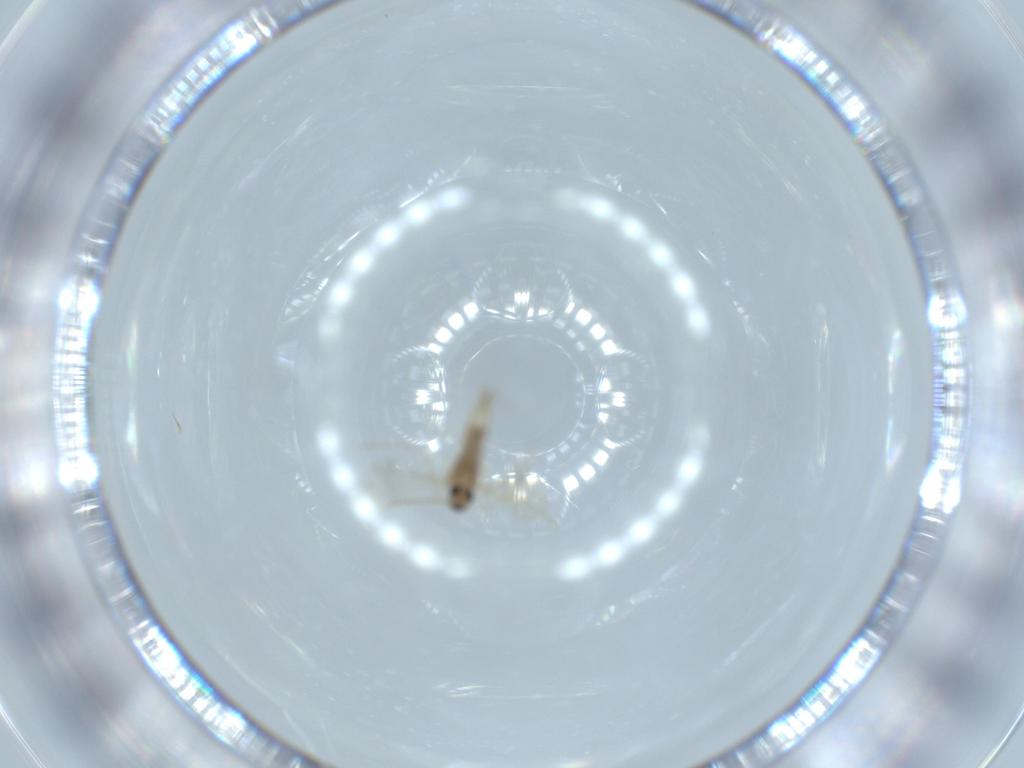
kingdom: Animalia
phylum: Arthropoda
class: Insecta
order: Diptera
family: Cecidomyiidae
